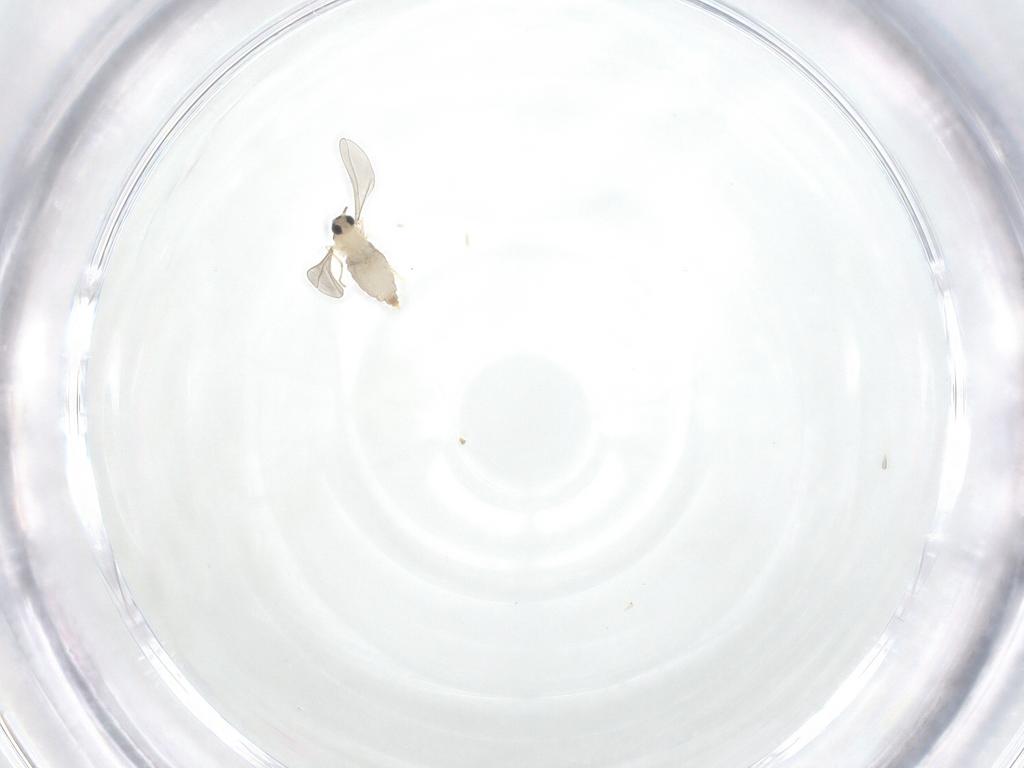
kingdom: Animalia
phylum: Arthropoda
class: Insecta
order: Diptera
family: Cecidomyiidae
